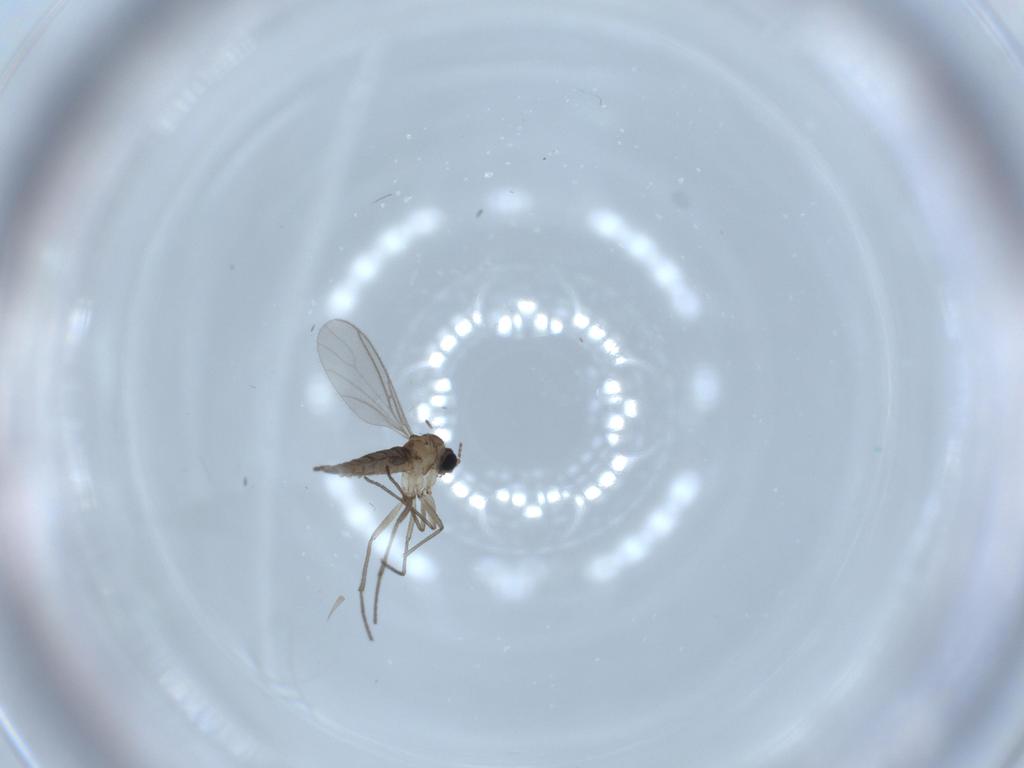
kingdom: Animalia
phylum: Arthropoda
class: Insecta
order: Diptera
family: Sciaridae
